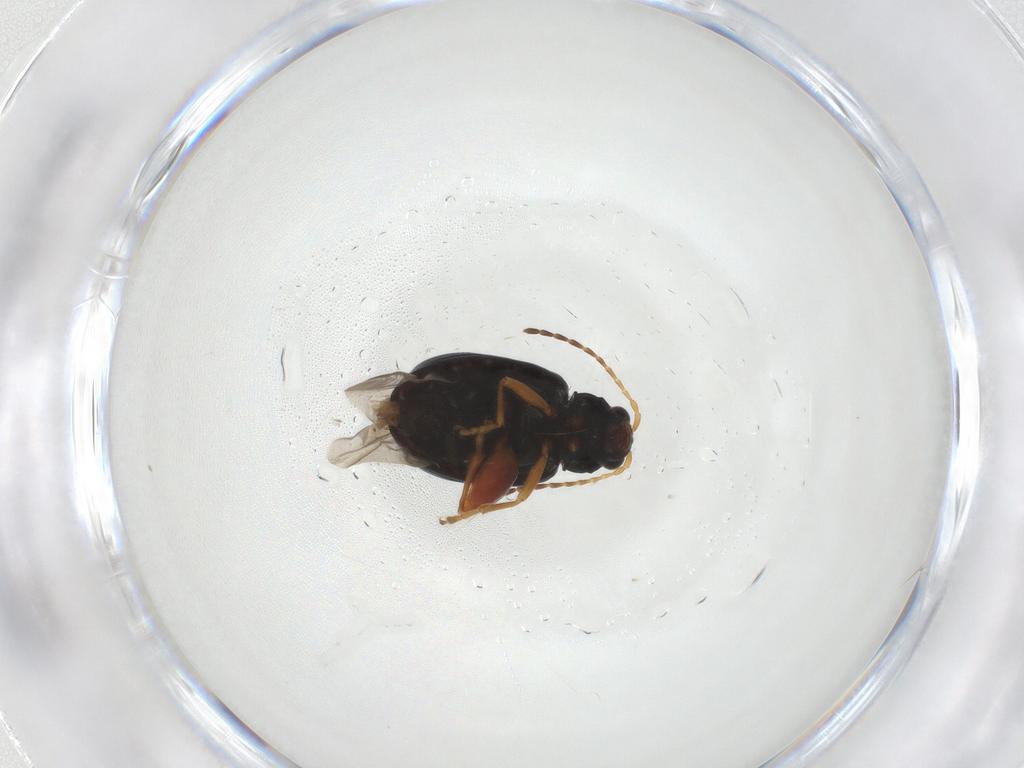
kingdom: Animalia
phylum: Arthropoda
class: Insecta
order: Coleoptera
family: Chrysomelidae
